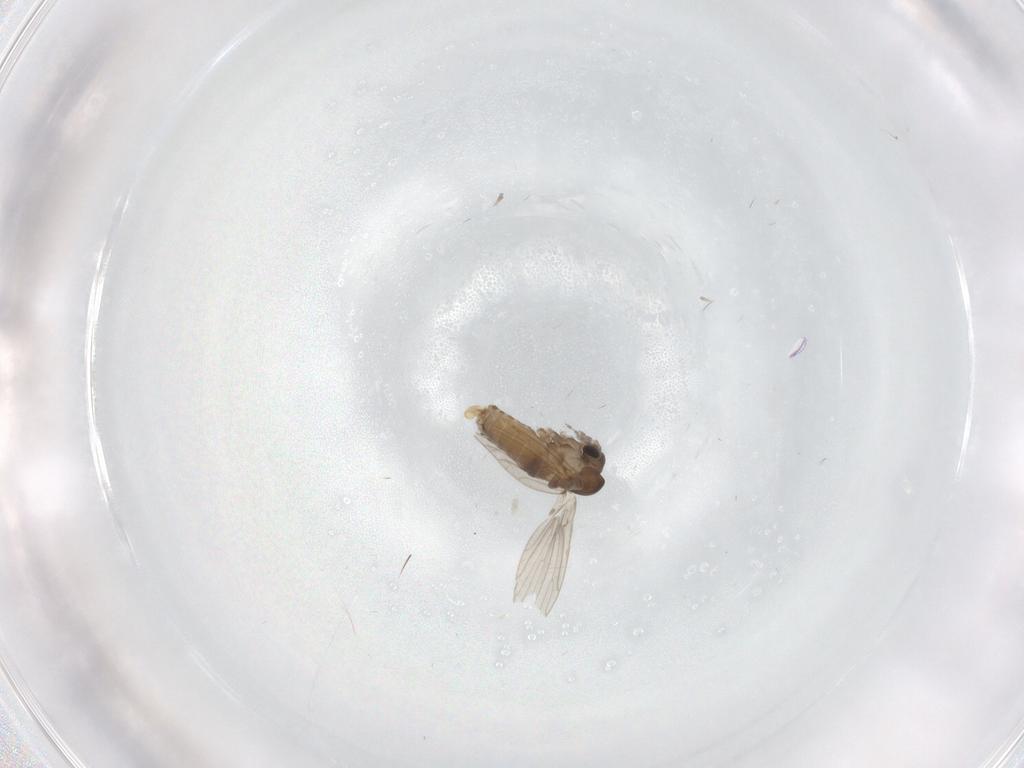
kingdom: Animalia
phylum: Arthropoda
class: Insecta
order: Diptera
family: Psychodidae
